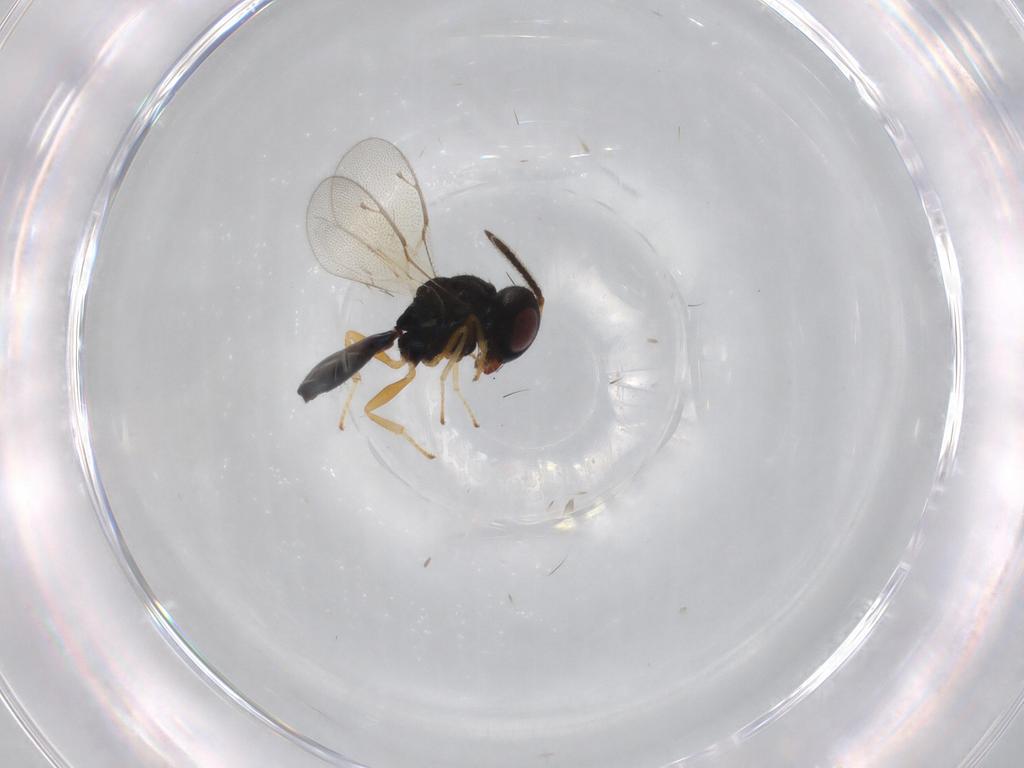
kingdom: Animalia
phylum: Arthropoda
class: Insecta
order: Hymenoptera
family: Pteromalidae
